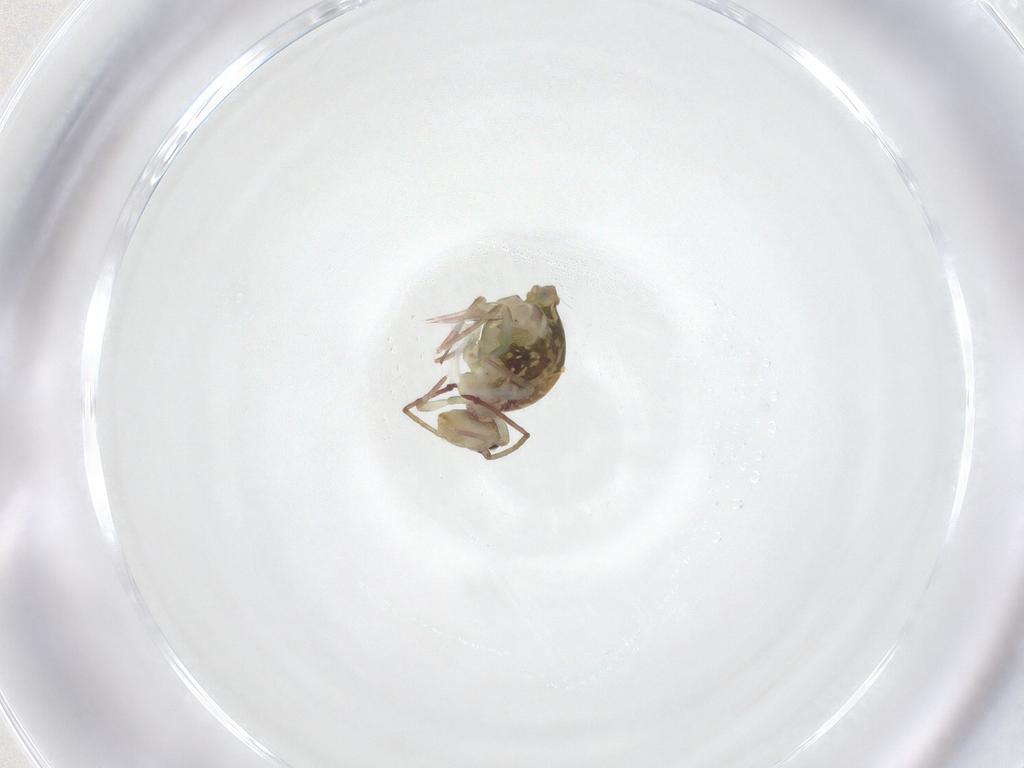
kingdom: Animalia
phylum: Arthropoda
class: Collembola
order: Symphypleona
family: Dicyrtomidae
